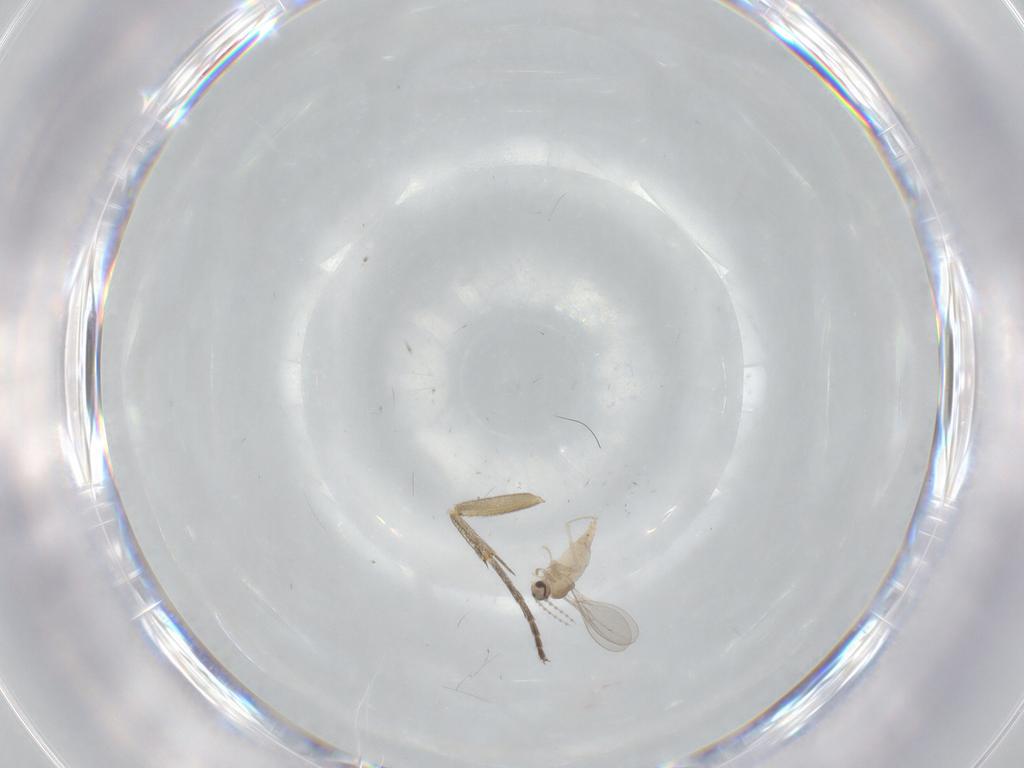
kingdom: Animalia
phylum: Arthropoda
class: Insecta
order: Diptera
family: Mycetophilidae
